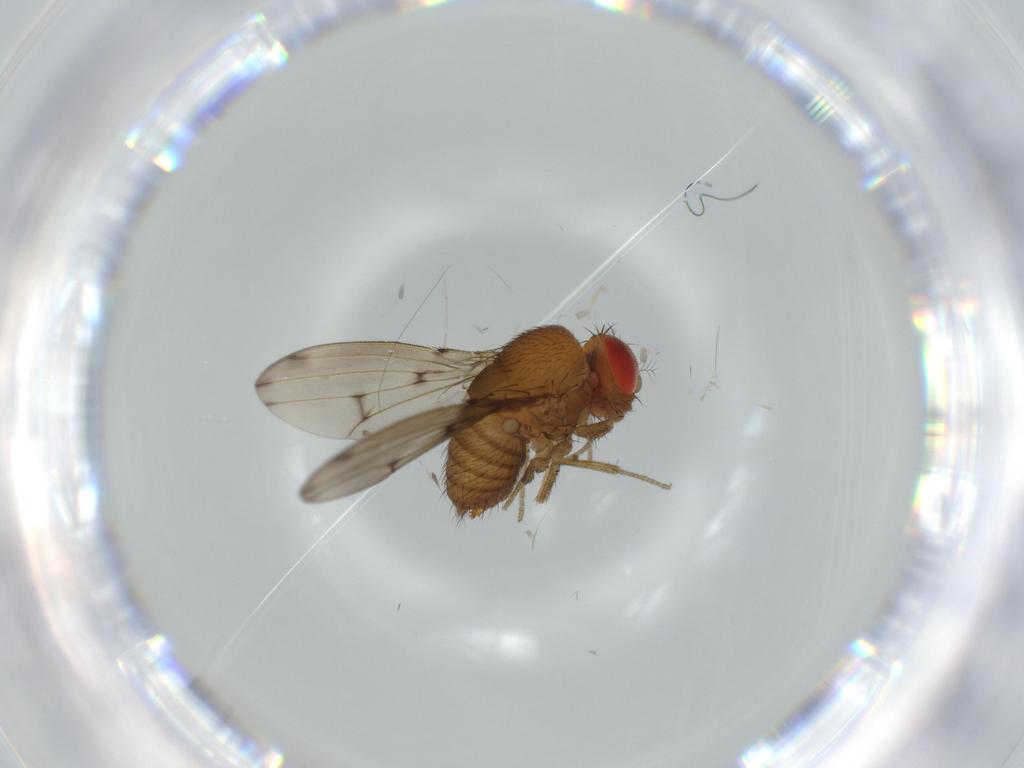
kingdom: Animalia
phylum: Arthropoda
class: Insecta
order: Diptera
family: Drosophilidae
